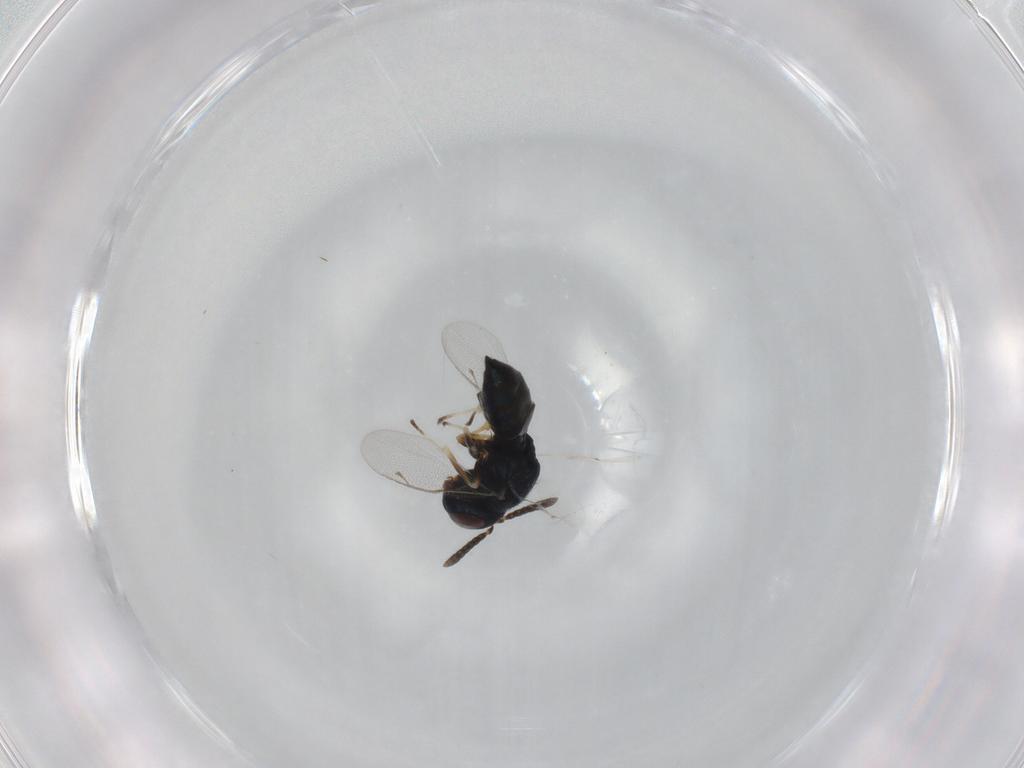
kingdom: Animalia
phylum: Arthropoda
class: Insecta
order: Hymenoptera
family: Pteromalidae
